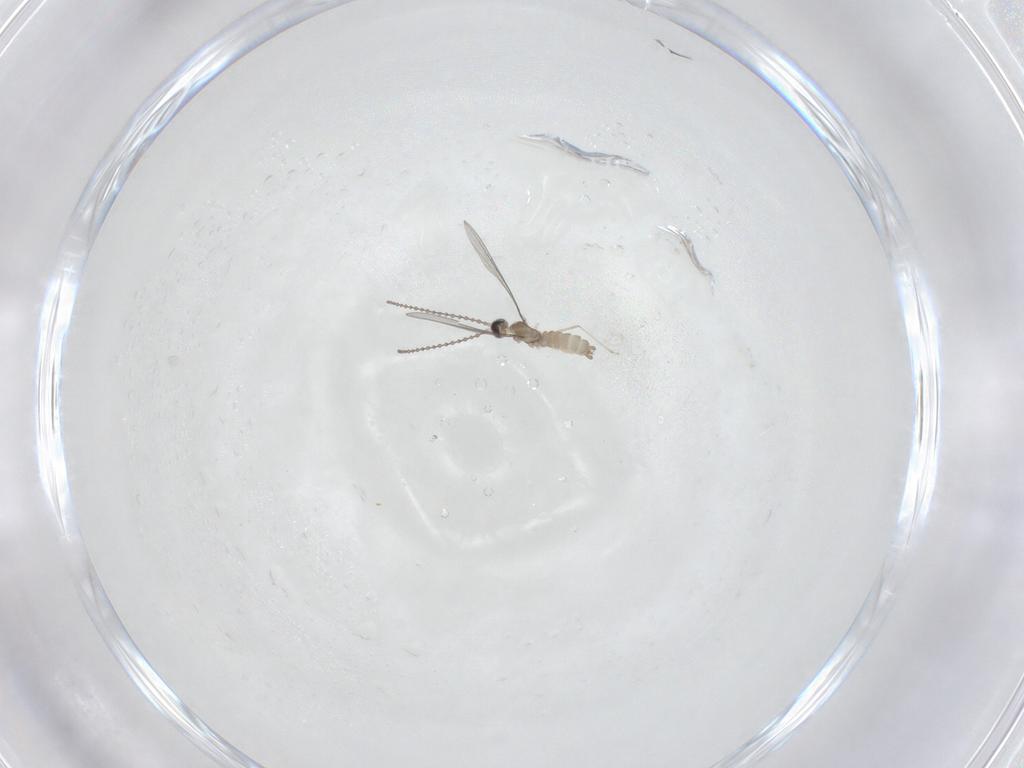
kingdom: Animalia
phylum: Arthropoda
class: Insecta
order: Diptera
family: Cecidomyiidae
